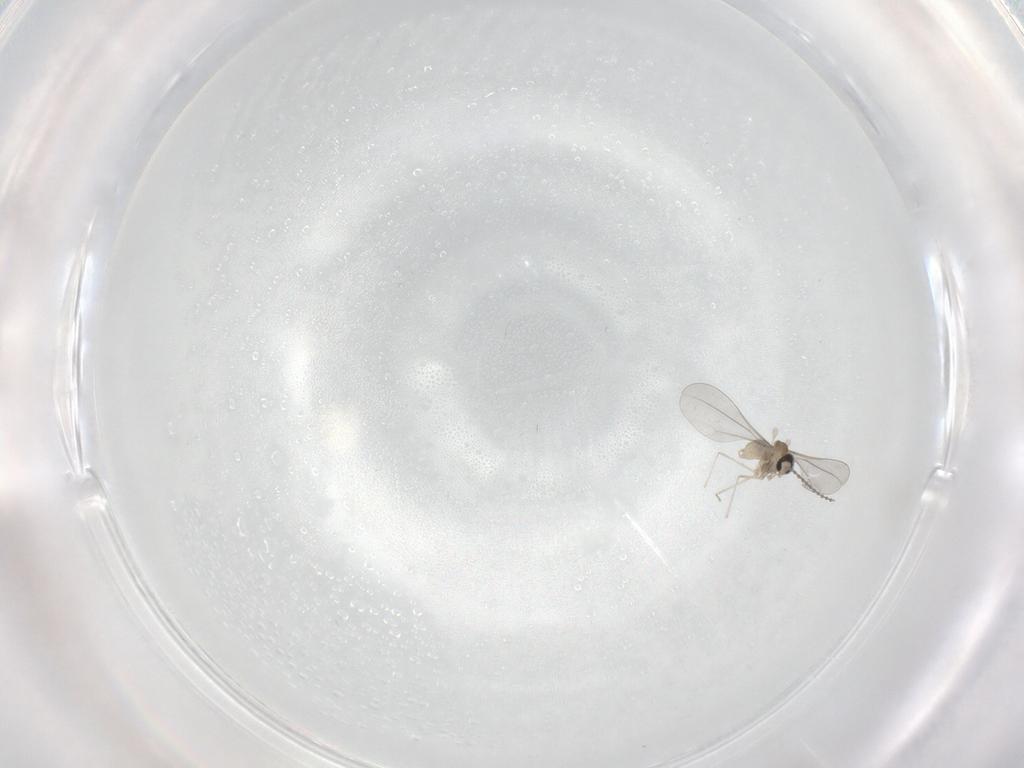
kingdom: Animalia
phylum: Arthropoda
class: Insecta
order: Diptera
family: Cecidomyiidae
